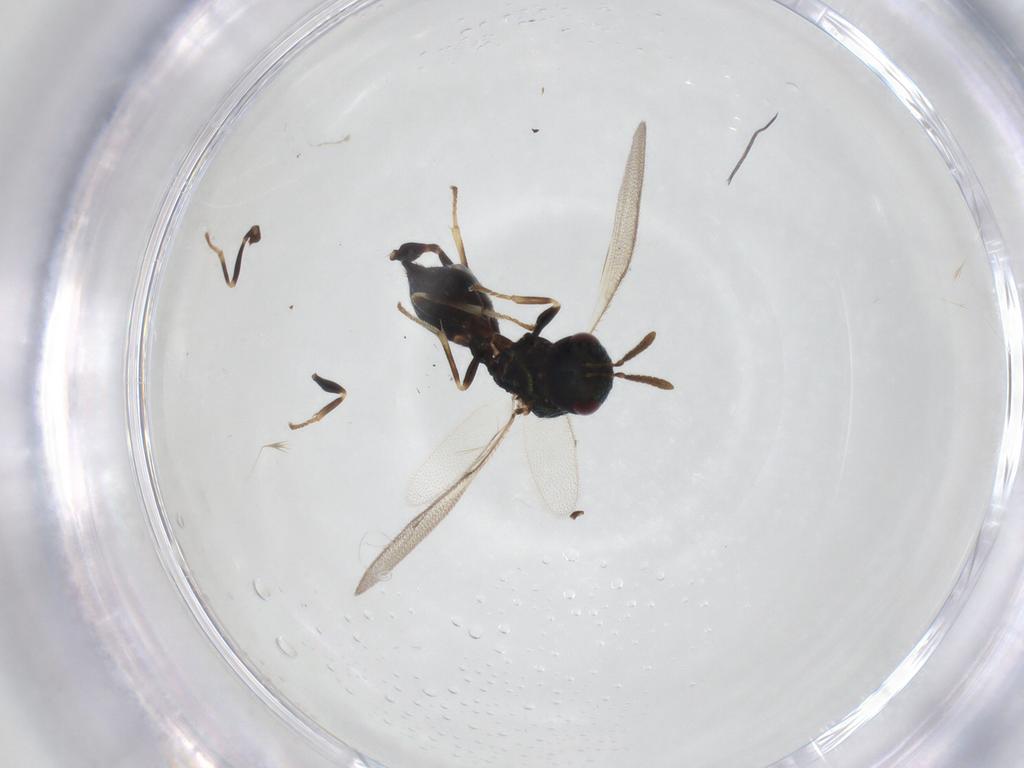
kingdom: Animalia
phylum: Arthropoda
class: Insecta
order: Hymenoptera
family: Pteromalidae
